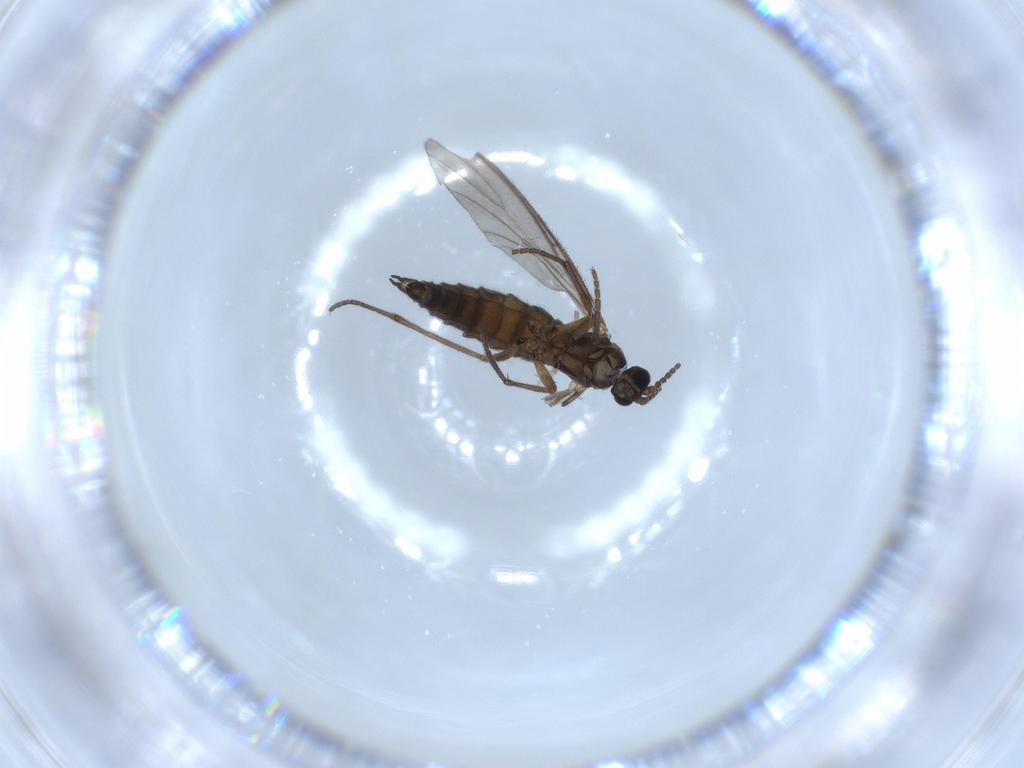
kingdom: Animalia
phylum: Arthropoda
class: Insecta
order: Diptera
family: Sciaridae
